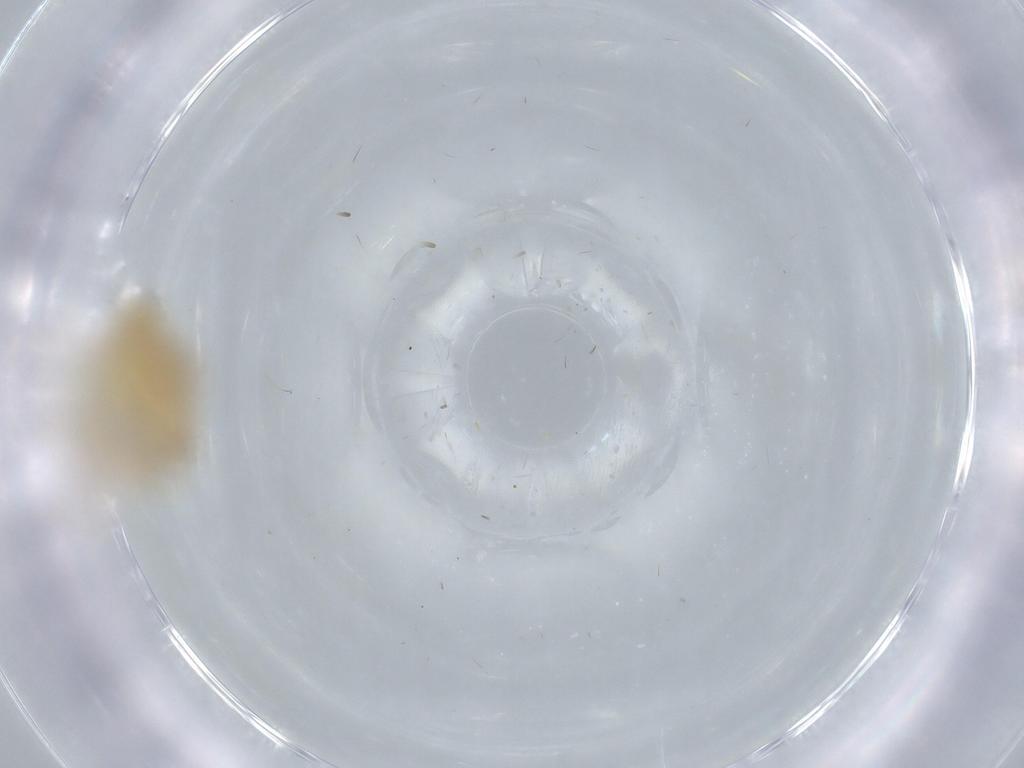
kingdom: Animalia
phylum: Arthropoda
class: Insecta
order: Hemiptera
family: Triozidae
